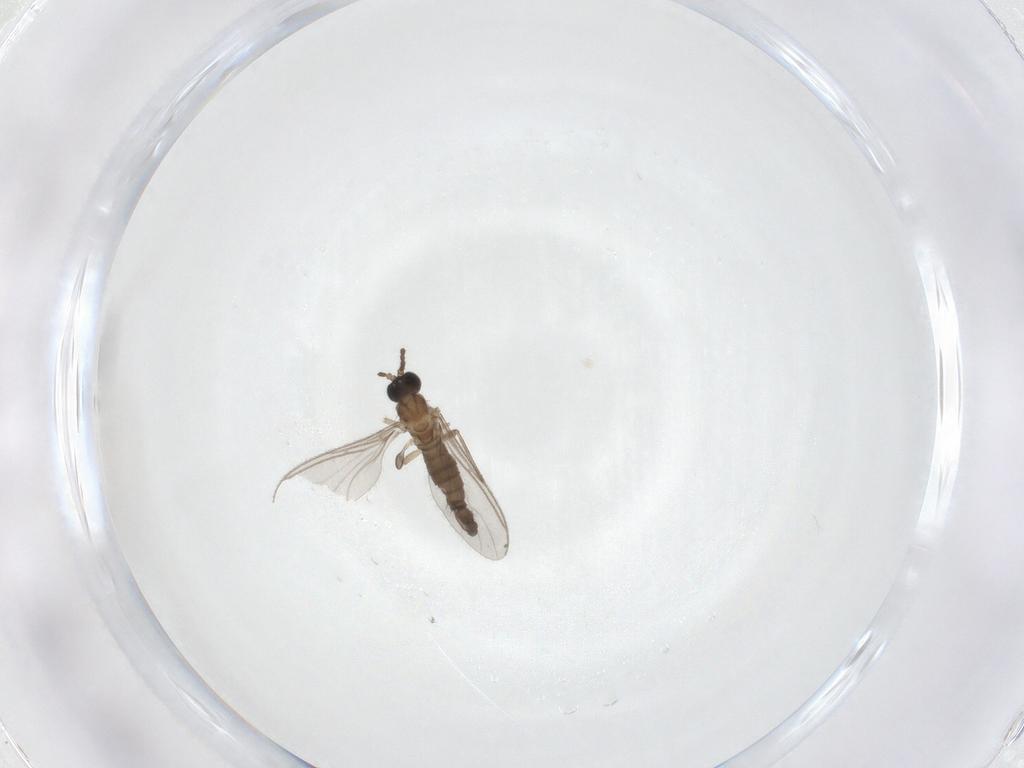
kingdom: Animalia
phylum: Arthropoda
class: Insecta
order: Diptera
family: Sciaridae
